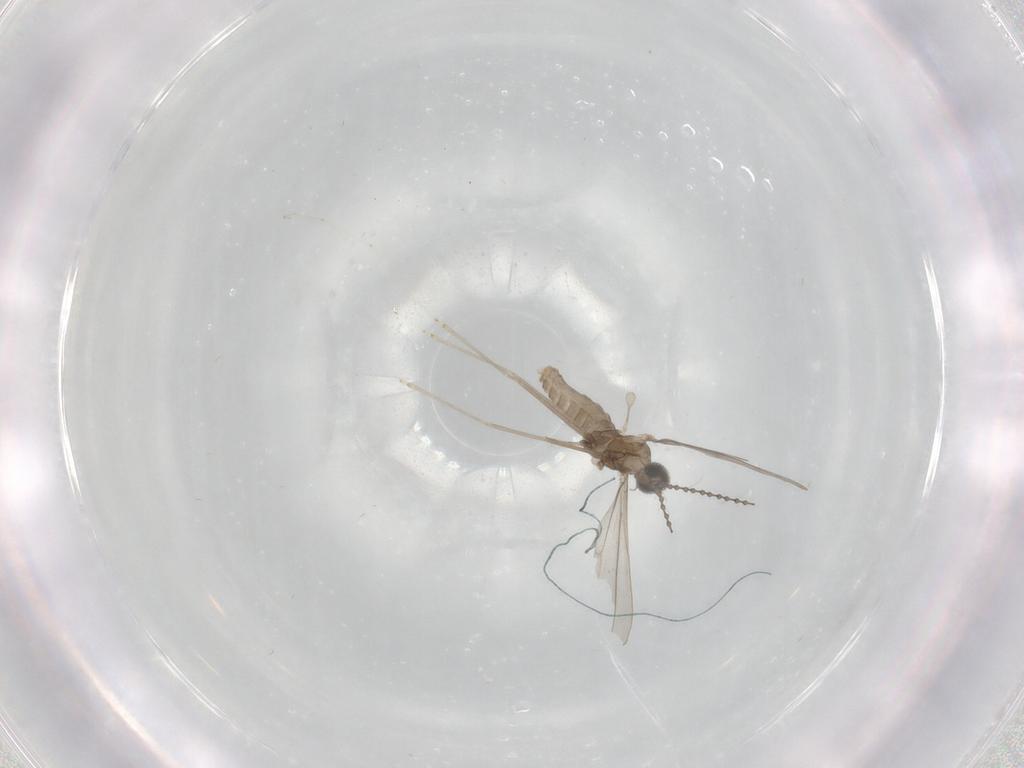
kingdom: Animalia
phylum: Arthropoda
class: Insecta
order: Diptera
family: Cecidomyiidae
